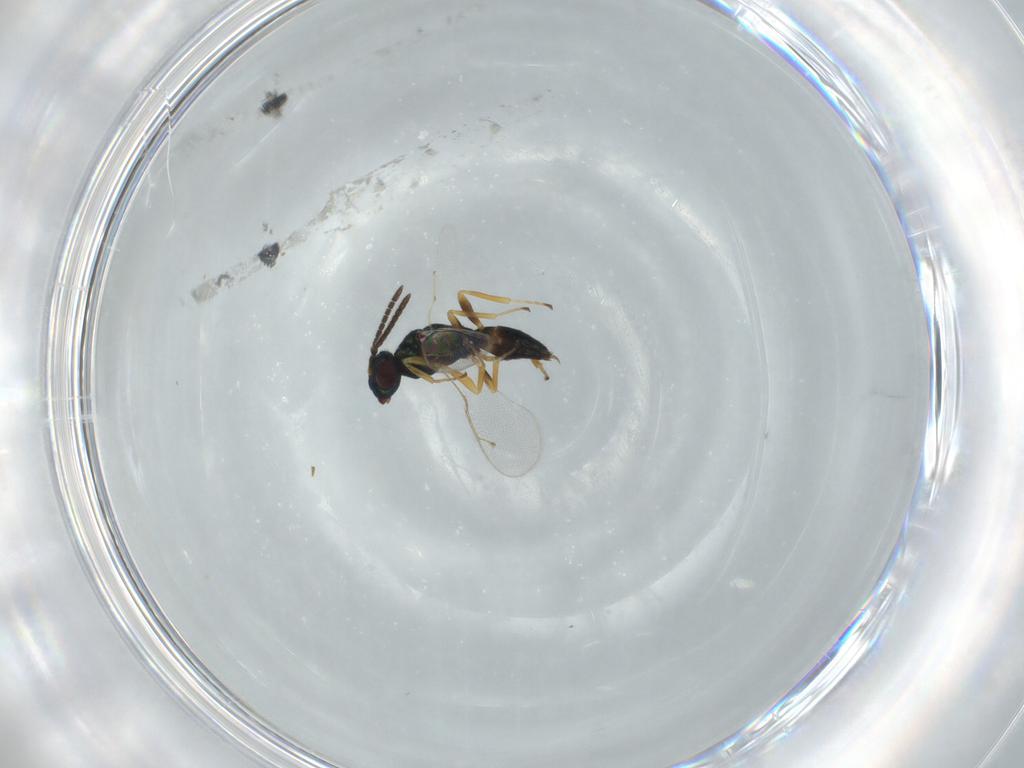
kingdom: Animalia
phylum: Arthropoda
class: Insecta
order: Hymenoptera
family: Pteromalidae
